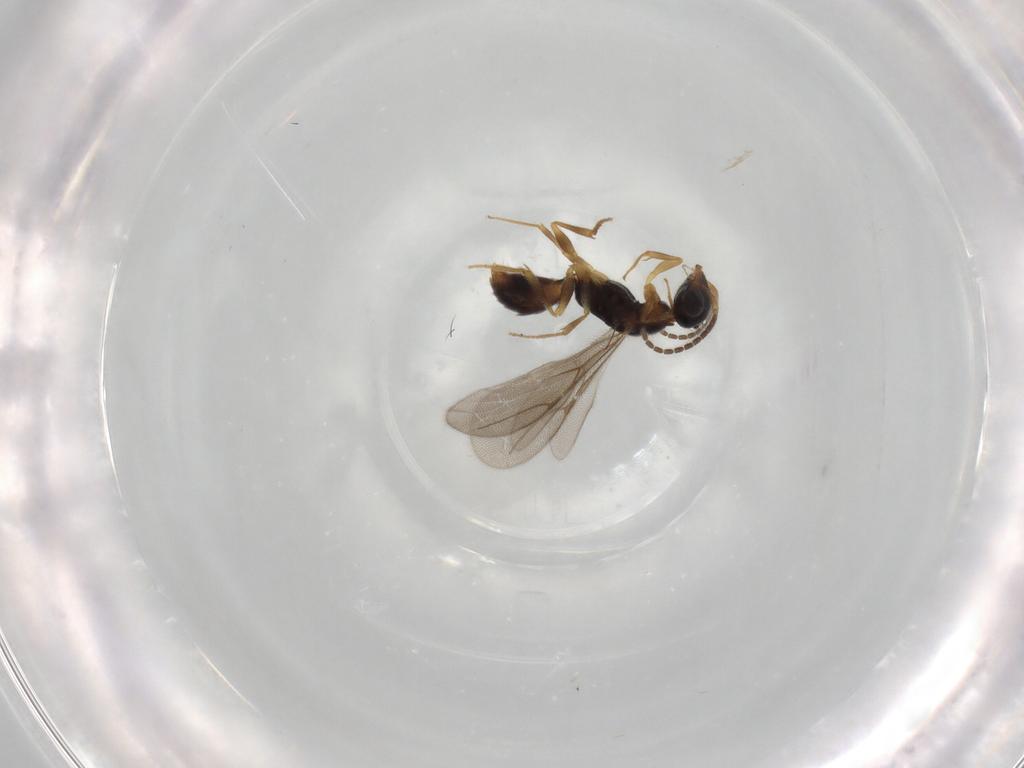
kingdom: Animalia
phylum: Arthropoda
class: Insecta
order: Hymenoptera
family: Bethylidae
